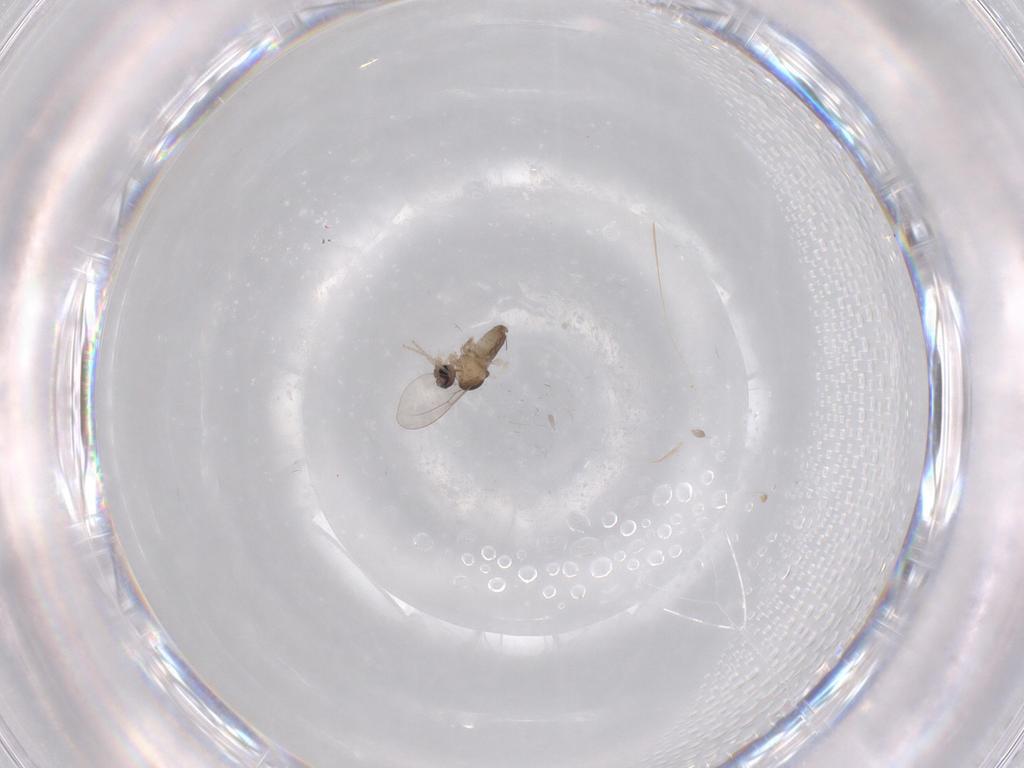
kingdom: Animalia
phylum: Arthropoda
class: Insecta
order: Diptera
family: Cecidomyiidae
